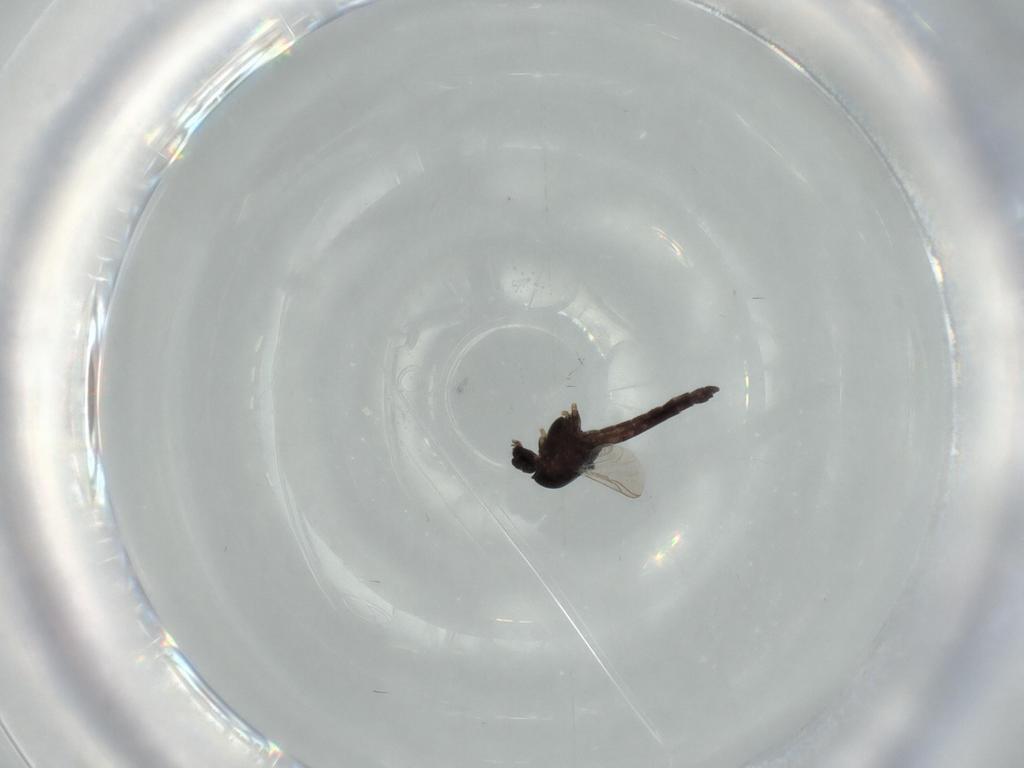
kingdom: Animalia
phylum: Arthropoda
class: Insecta
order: Diptera
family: Chironomidae
